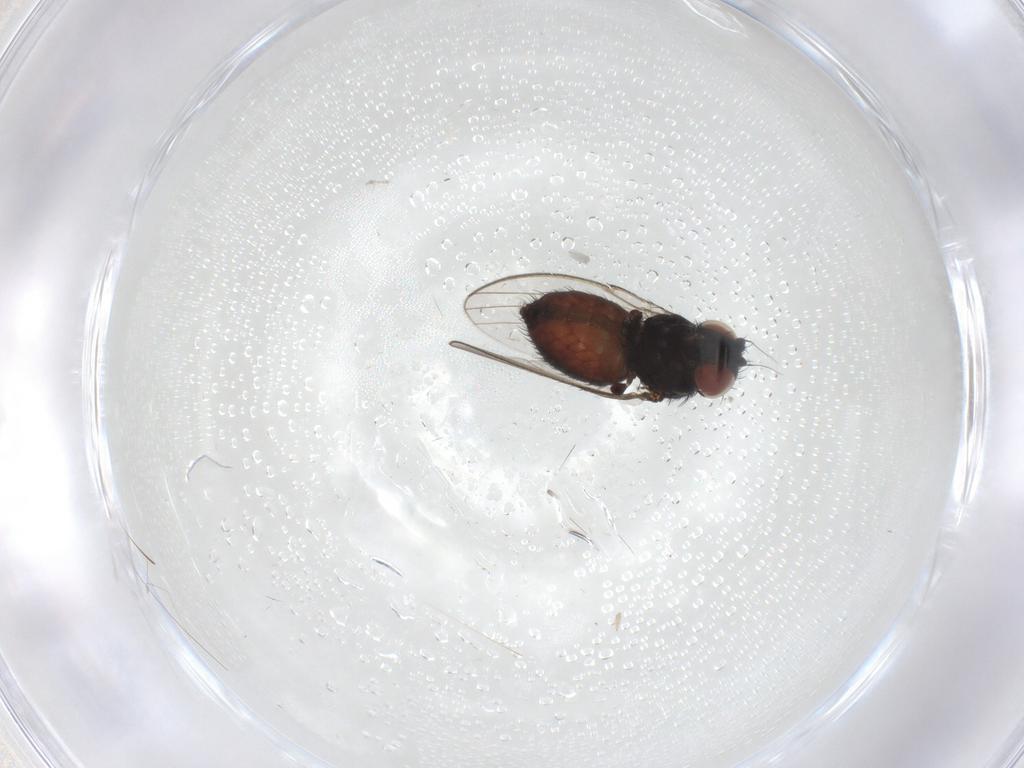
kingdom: Animalia
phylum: Arthropoda
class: Insecta
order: Diptera
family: Milichiidae
